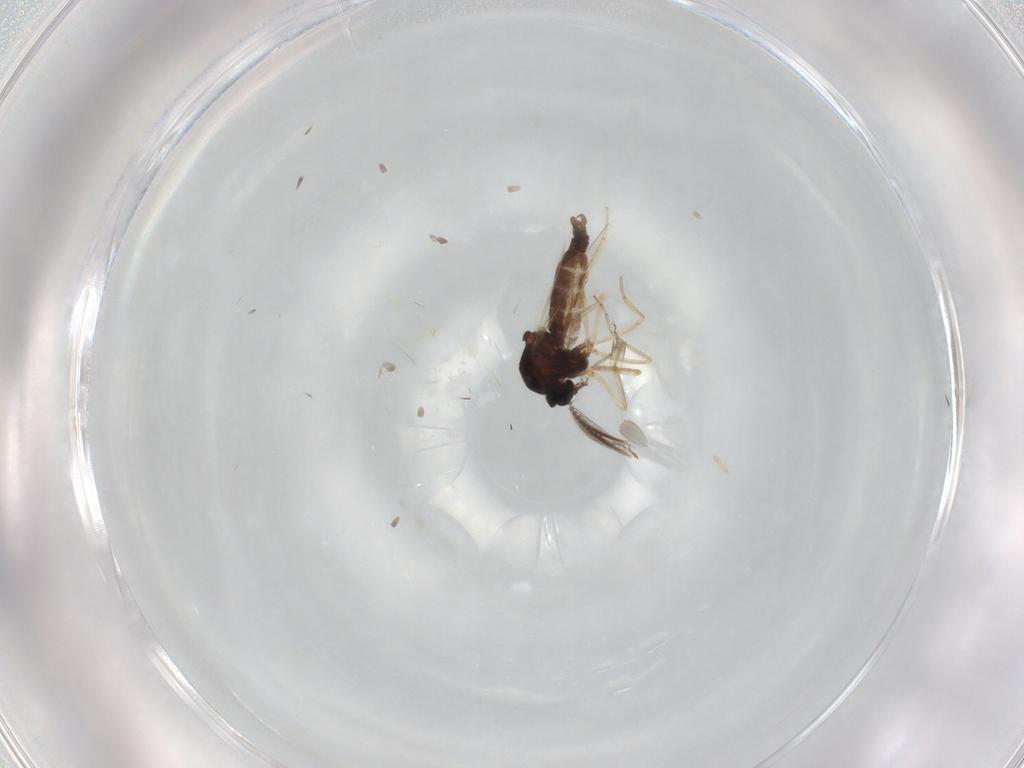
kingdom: Animalia
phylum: Arthropoda
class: Insecta
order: Diptera
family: Ceratopogonidae
